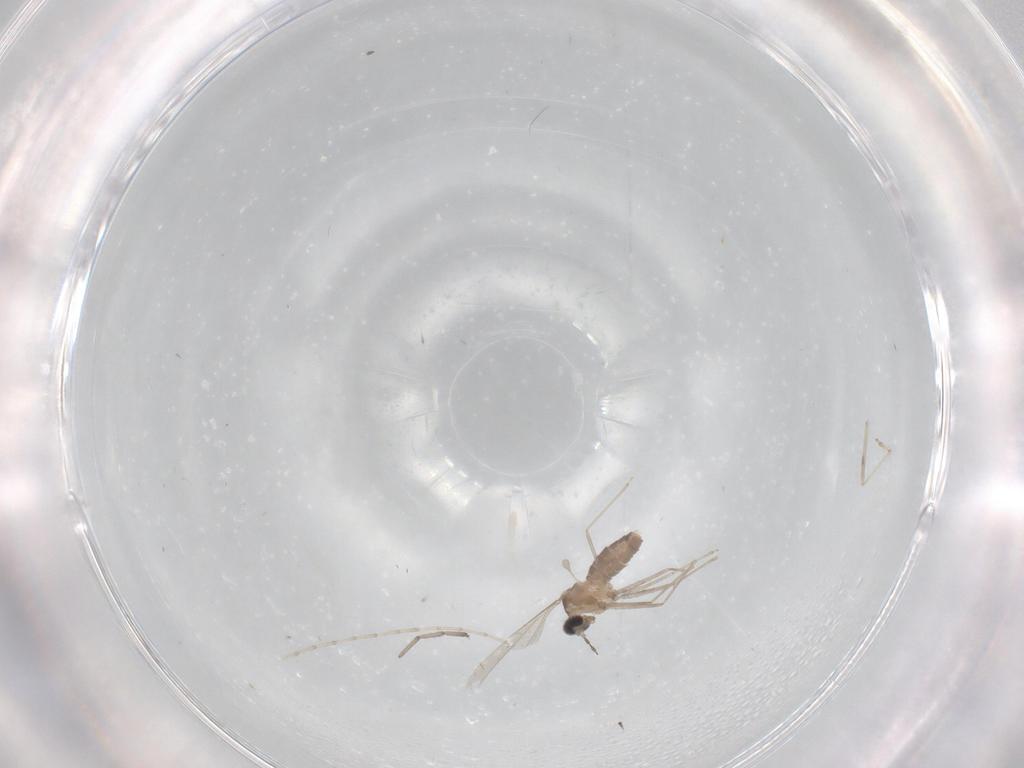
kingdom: Animalia
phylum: Arthropoda
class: Insecta
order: Diptera
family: Cecidomyiidae
